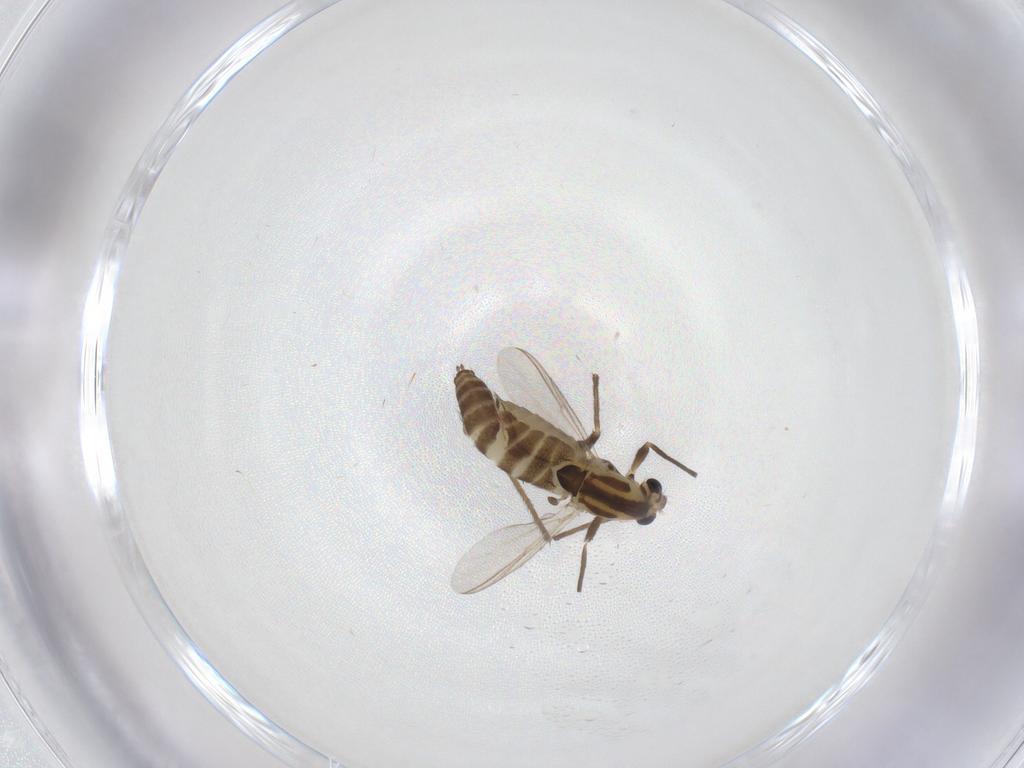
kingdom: Animalia
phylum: Arthropoda
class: Insecta
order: Diptera
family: Chironomidae
